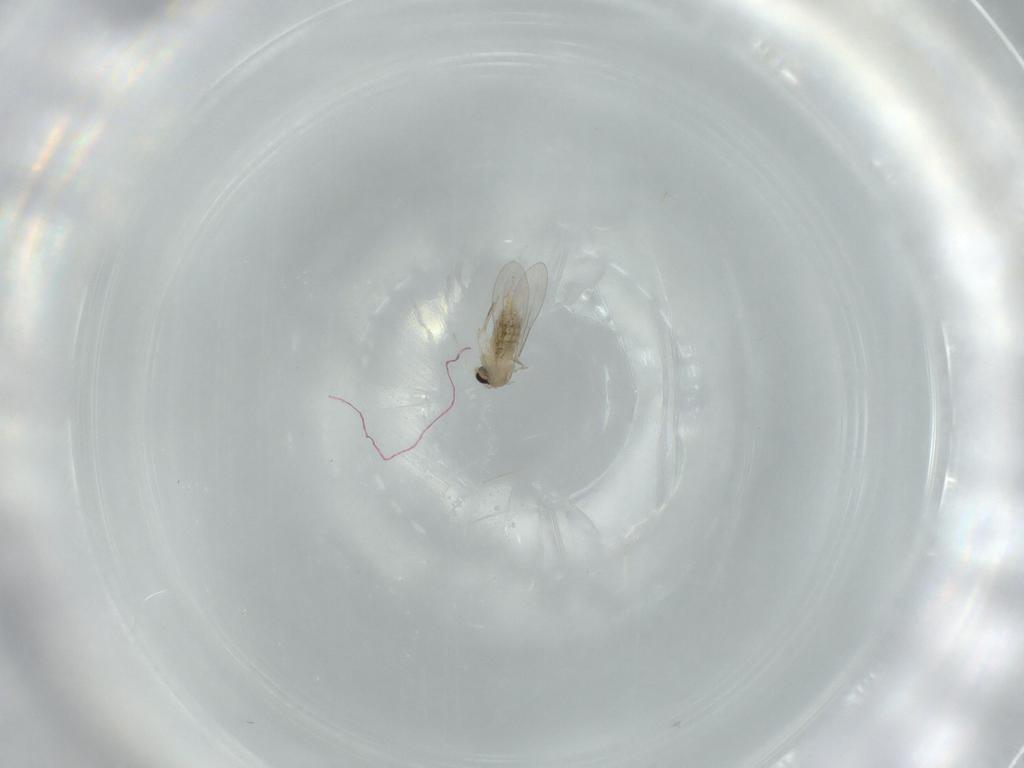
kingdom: Animalia
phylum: Arthropoda
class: Insecta
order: Diptera
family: Cecidomyiidae
